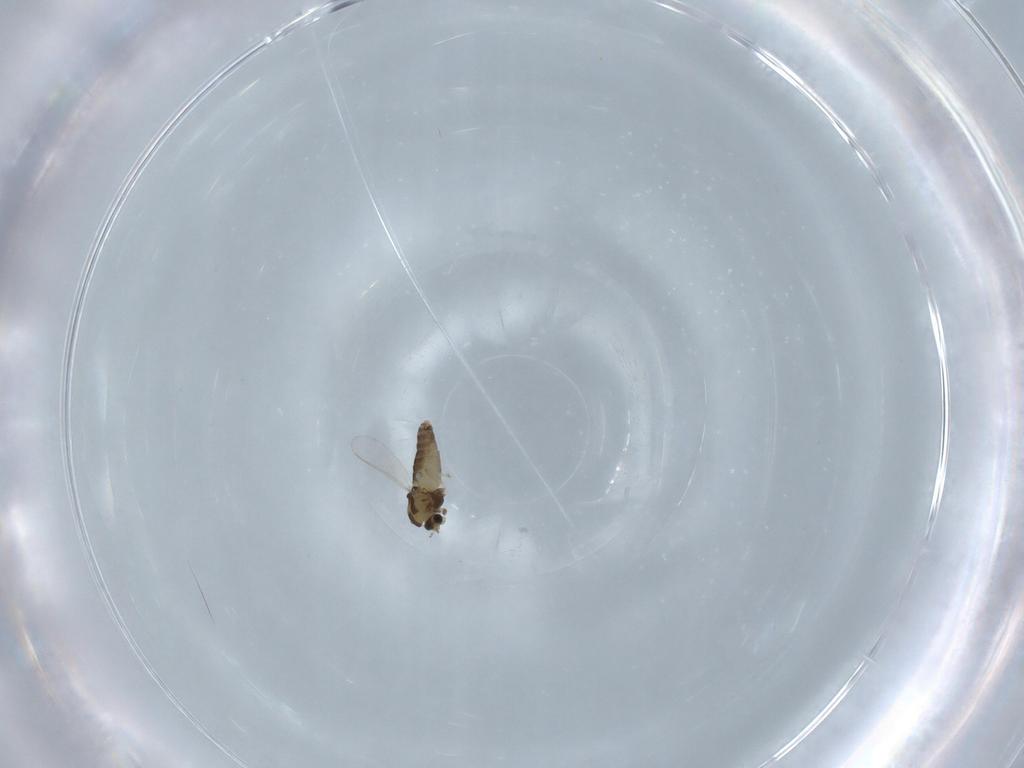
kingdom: Animalia
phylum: Arthropoda
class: Insecta
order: Diptera
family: Chironomidae
